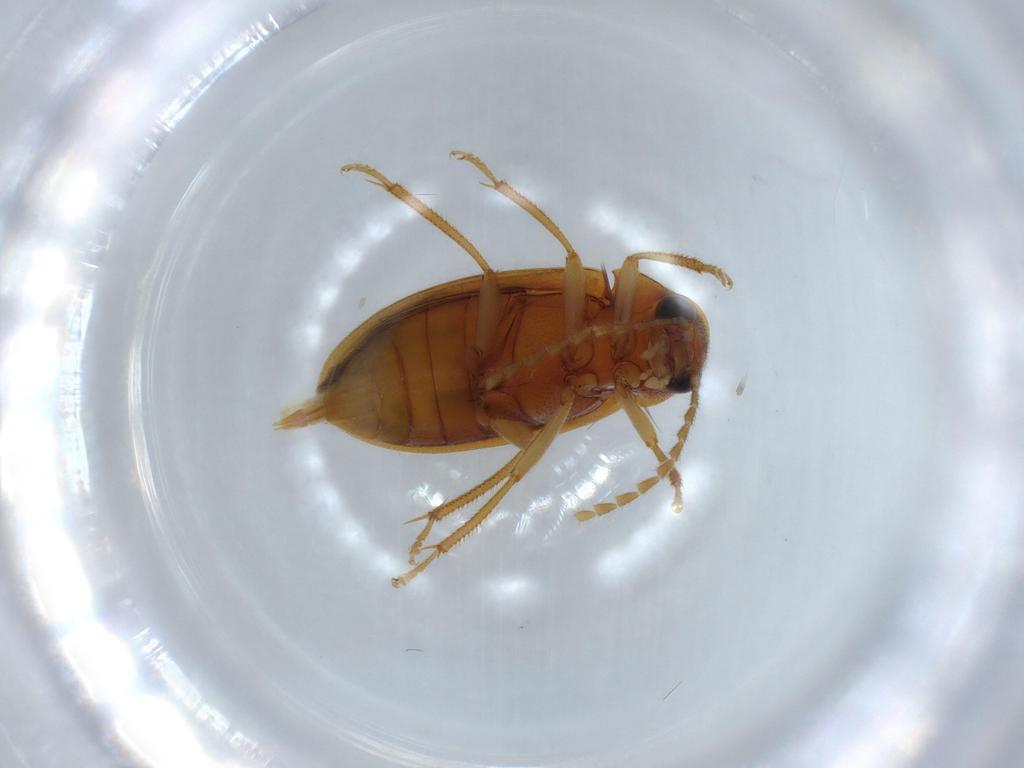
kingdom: Animalia
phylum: Arthropoda
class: Insecta
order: Coleoptera
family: Ptilodactylidae
